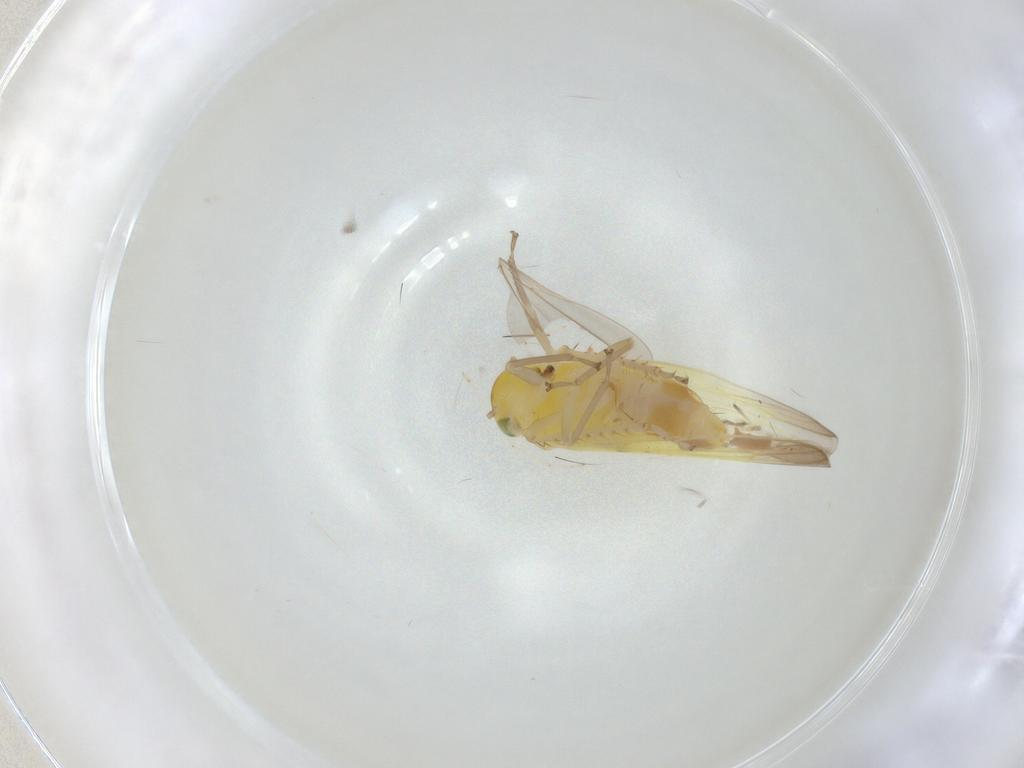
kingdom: Animalia
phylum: Arthropoda
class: Insecta
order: Hemiptera
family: Cicadellidae
